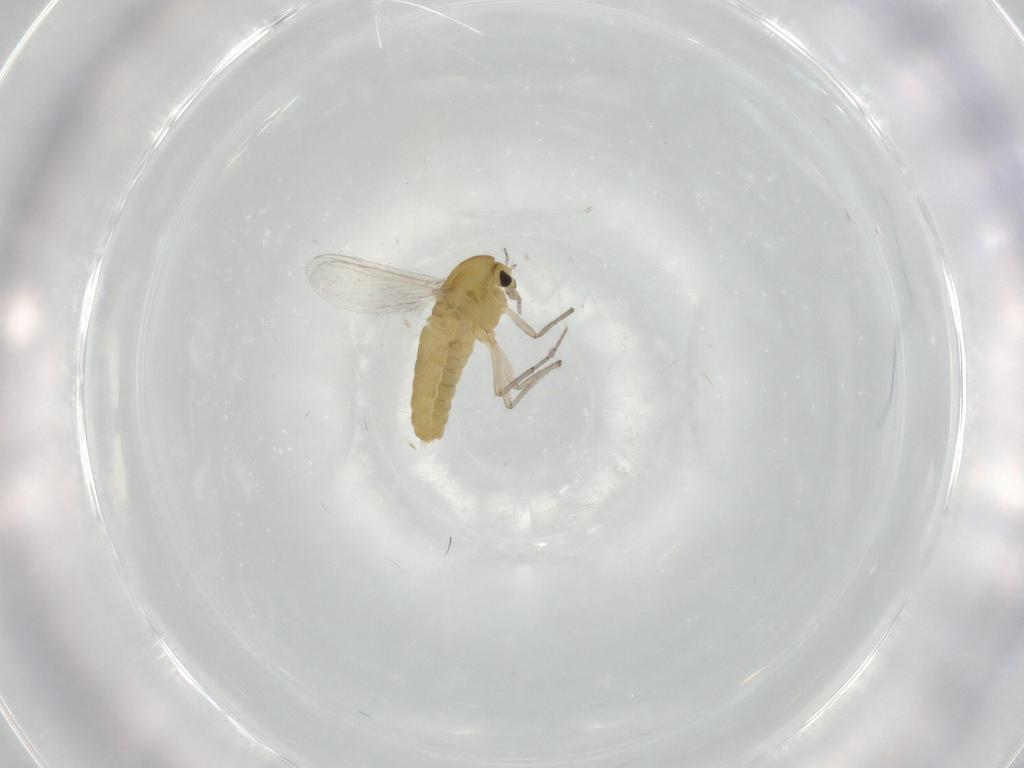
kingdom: Animalia
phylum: Arthropoda
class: Insecta
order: Diptera
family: Chironomidae
